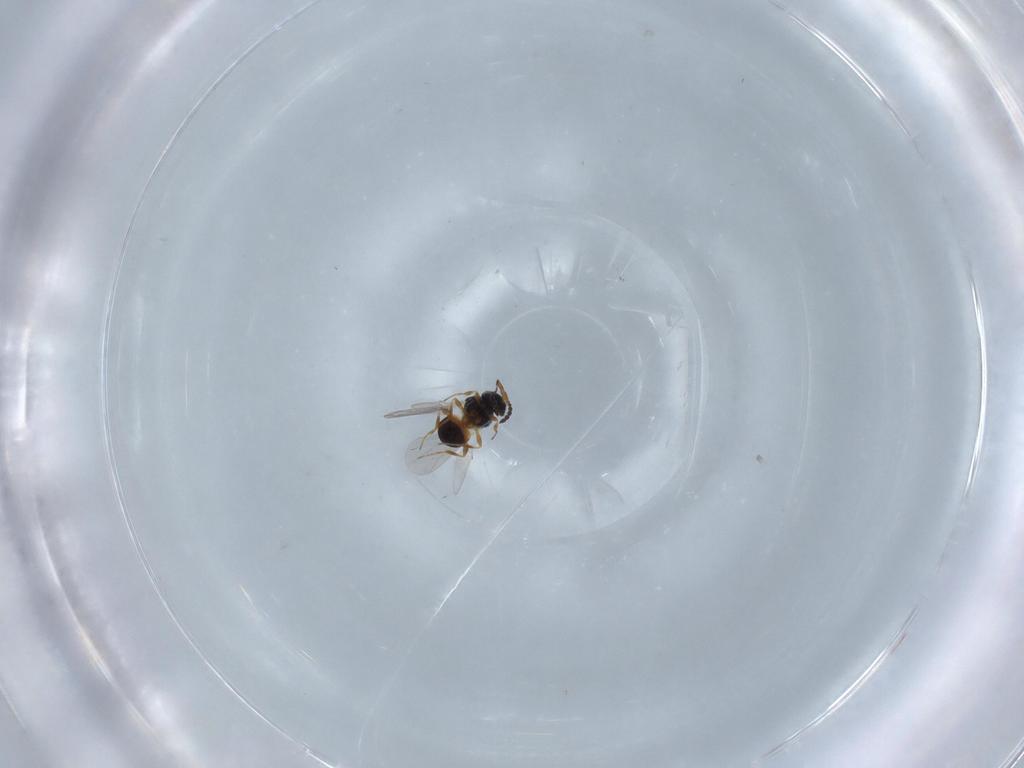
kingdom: Animalia
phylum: Arthropoda
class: Insecta
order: Hymenoptera
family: Platygastridae
